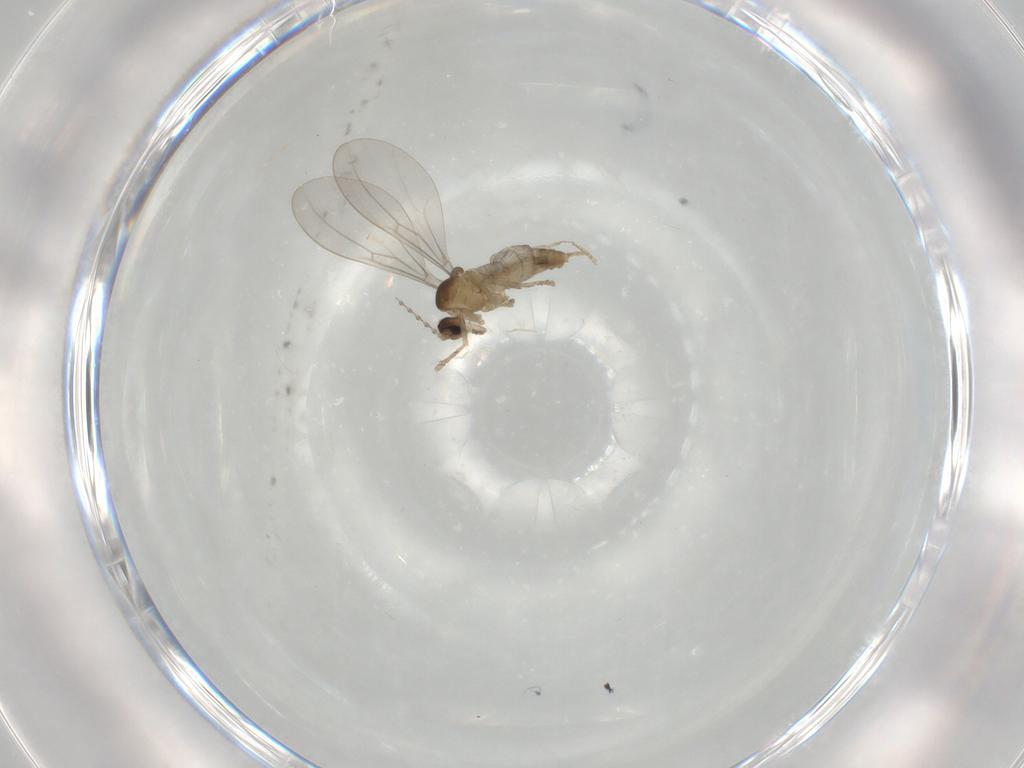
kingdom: Animalia
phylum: Arthropoda
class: Insecta
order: Diptera
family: Cecidomyiidae
